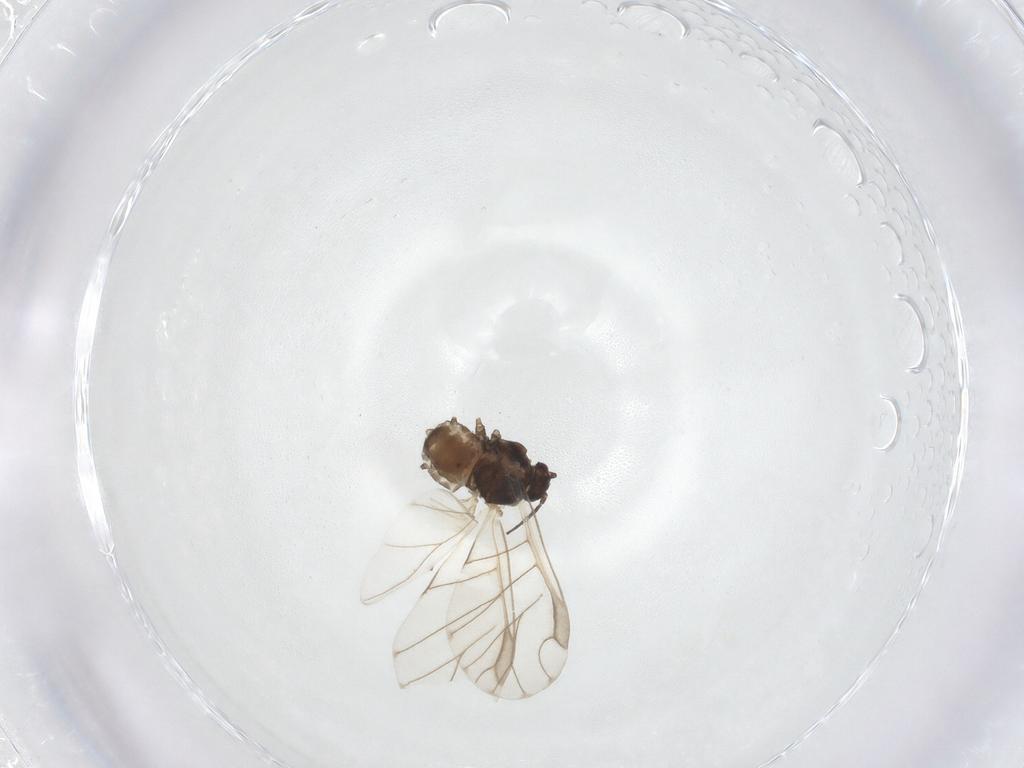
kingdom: Animalia
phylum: Arthropoda
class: Insecta
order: Hemiptera
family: Aphididae
